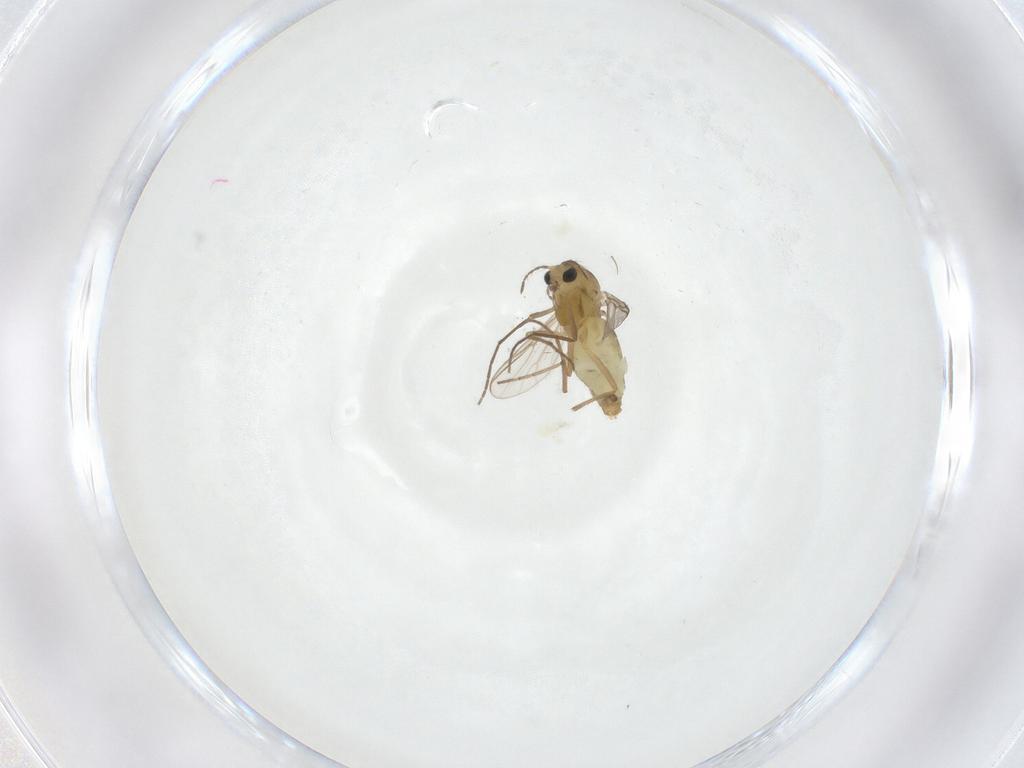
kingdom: Animalia
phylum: Arthropoda
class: Insecta
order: Diptera
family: Chironomidae
